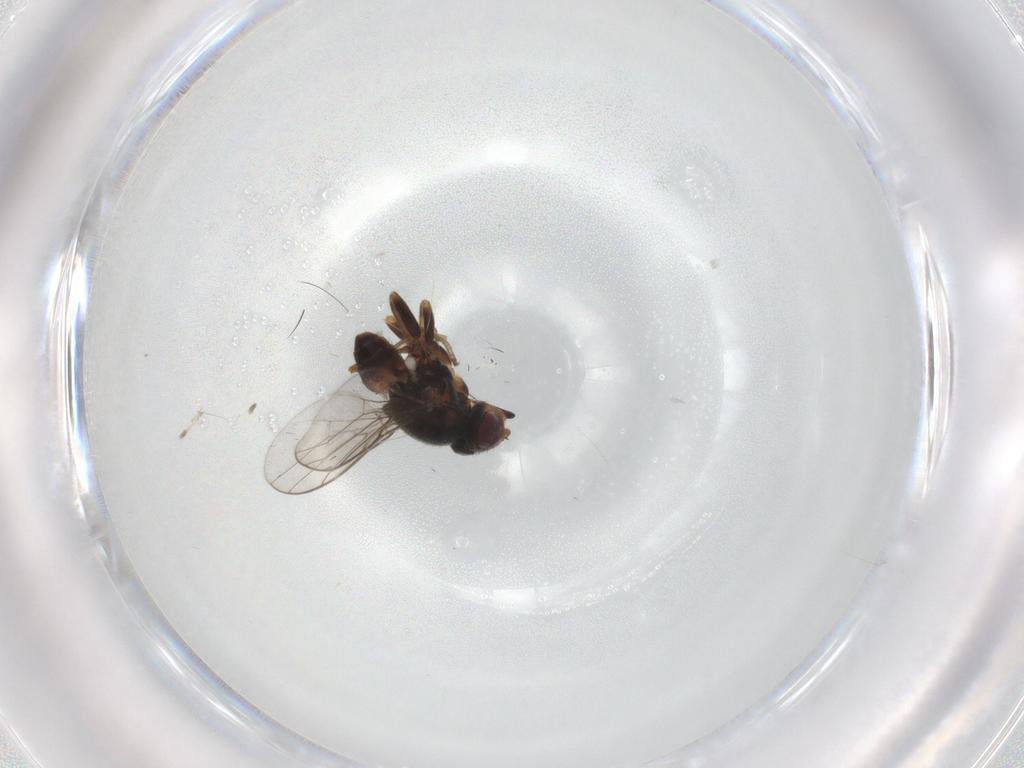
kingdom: Animalia
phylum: Arthropoda
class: Insecta
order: Diptera
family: Chloropidae
